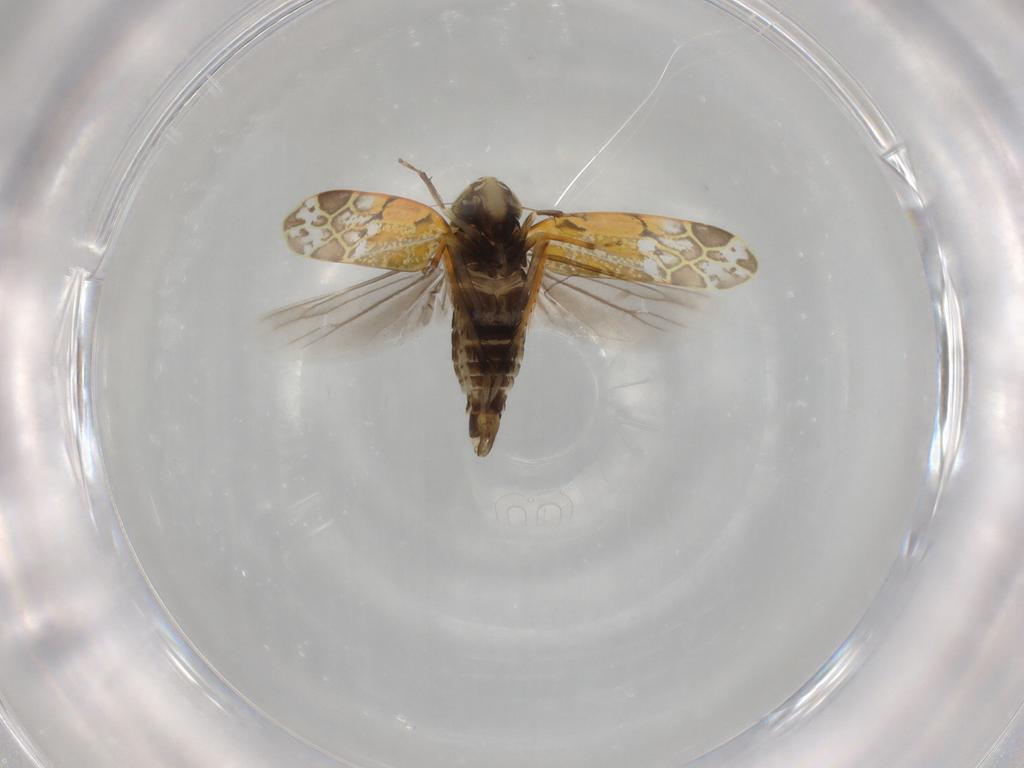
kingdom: Animalia
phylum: Arthropoda
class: Insecta
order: Hemiptera
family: Cicadellidae
